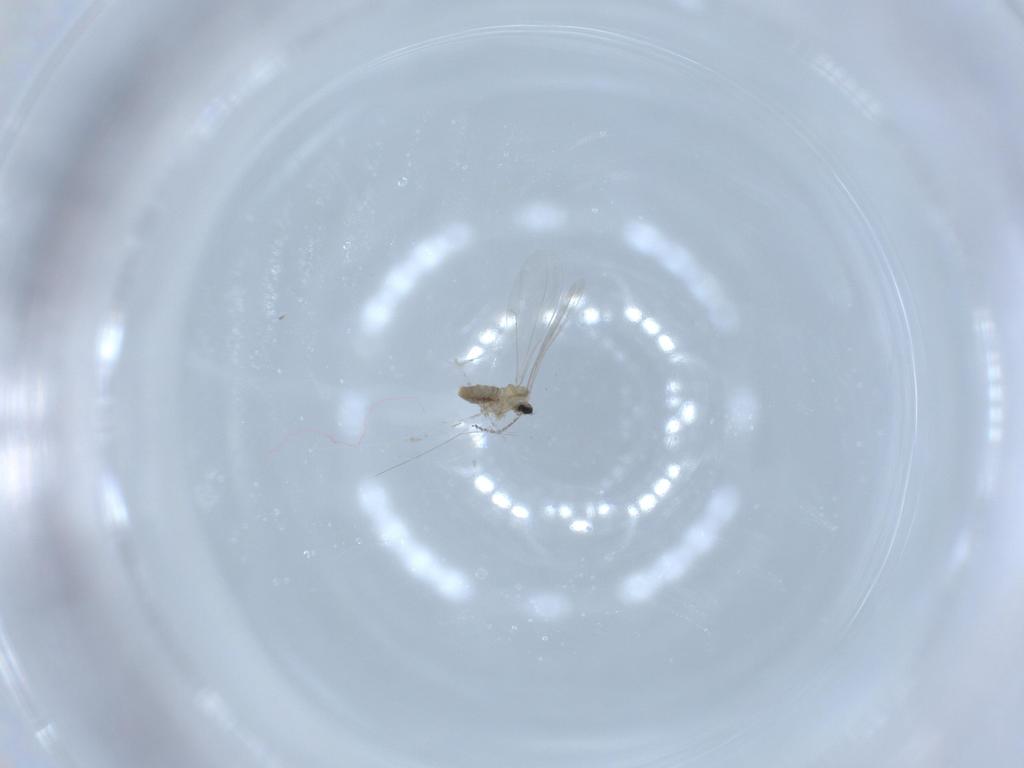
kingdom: Animalia
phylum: Arthropoda
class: Insecta
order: Diptera
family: Cecidomyiidae
